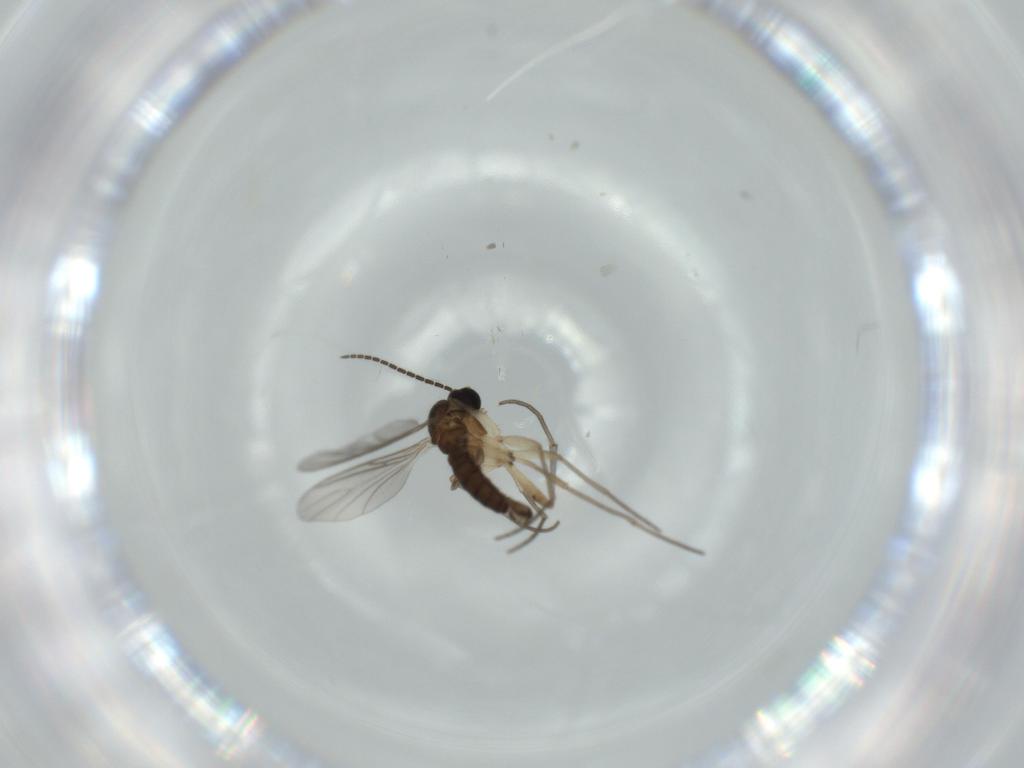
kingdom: Animalia
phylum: Arthropoda
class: Insecta
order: Diptera
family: Sciaridae
